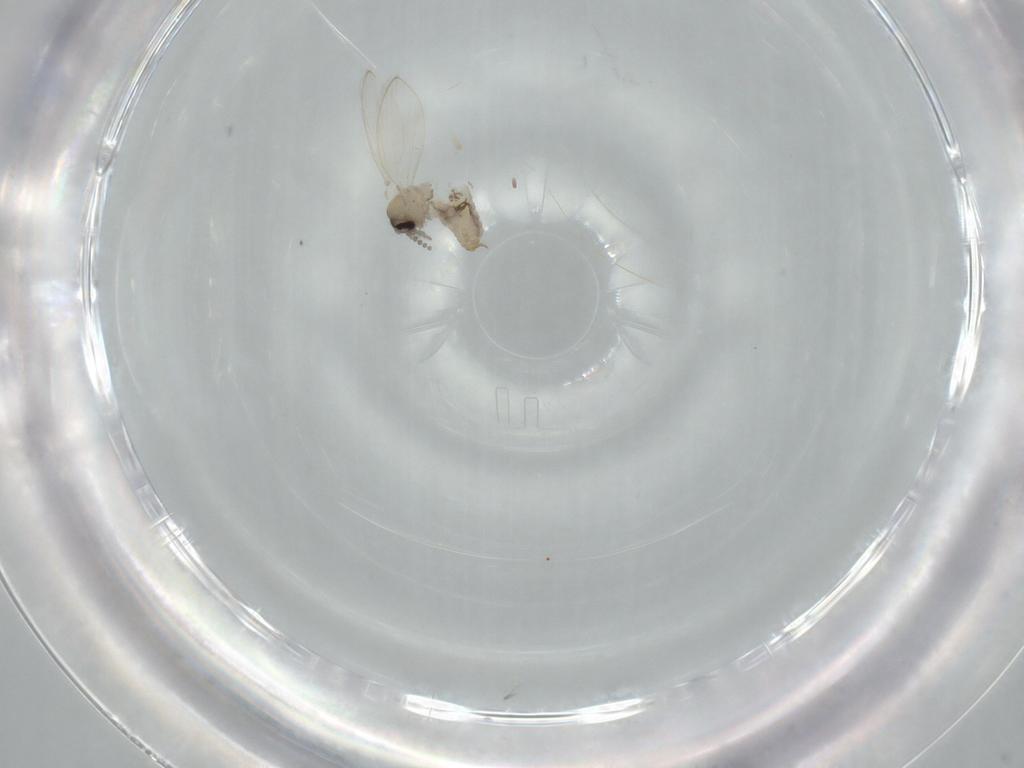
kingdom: Animalia
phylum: Arthropoda
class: Insecta
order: Diptera
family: Psychodidae
